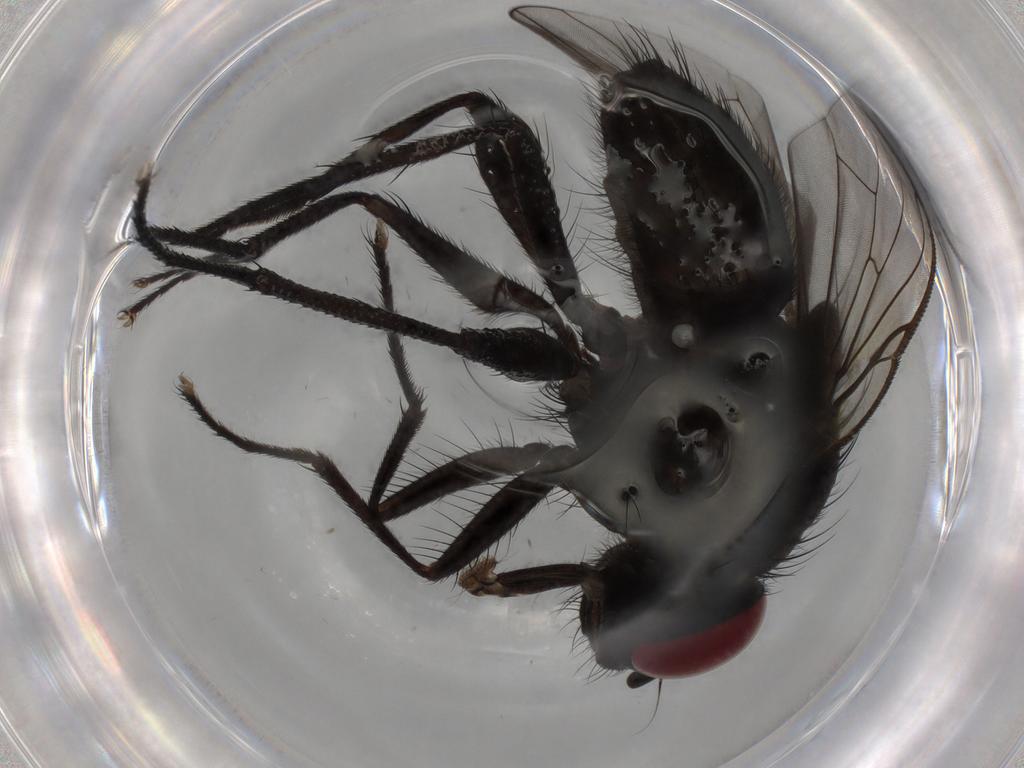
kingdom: Animalia
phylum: Arthropoda
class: Insecta
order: Diptera
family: Muscidae
